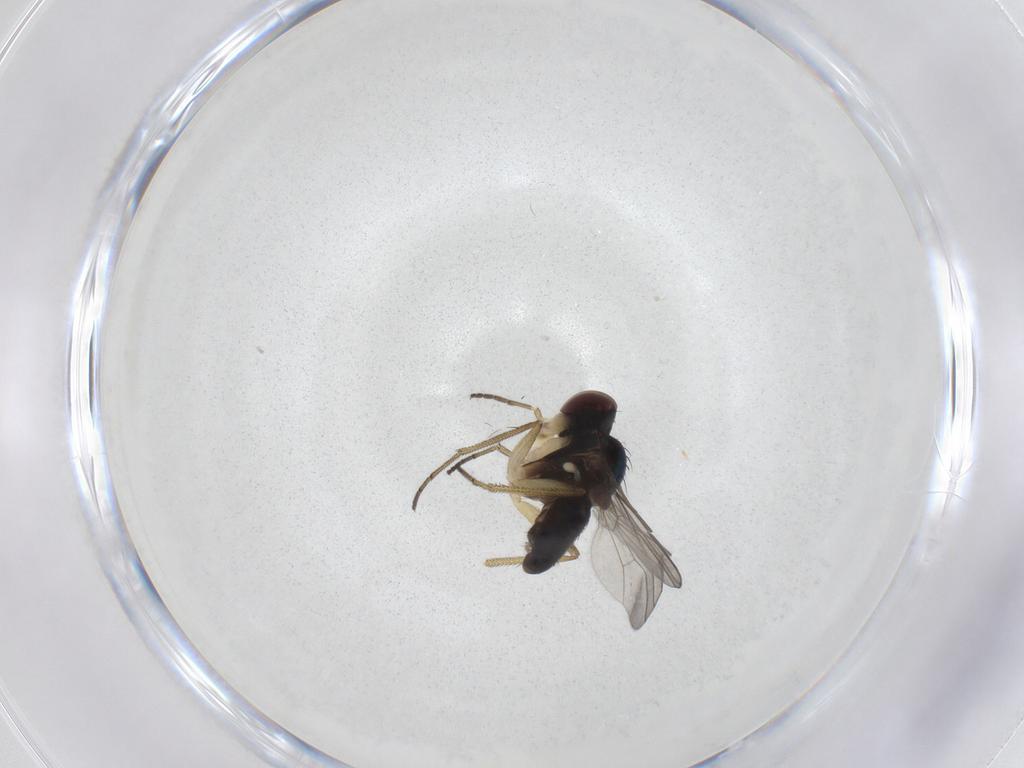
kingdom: Animalia
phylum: Arthropoda
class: Insecta
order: Diptera
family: Dolichopodidae
